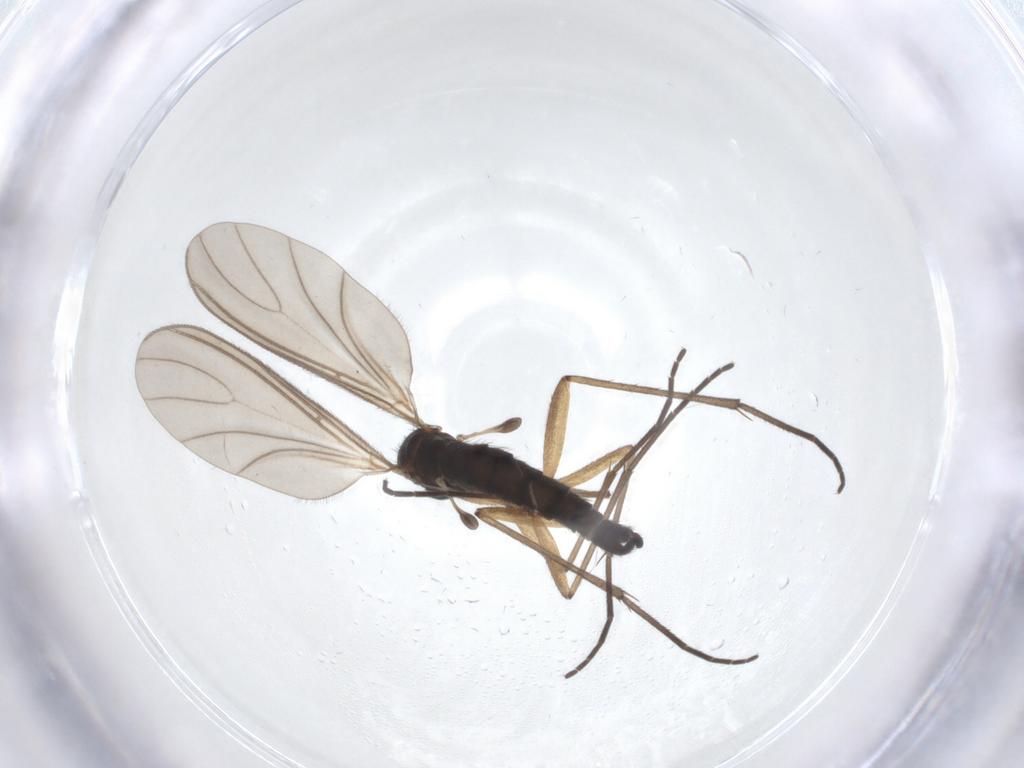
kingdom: Animalia
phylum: Arthropoda
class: Insecta
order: Diptera
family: Sciaridae
